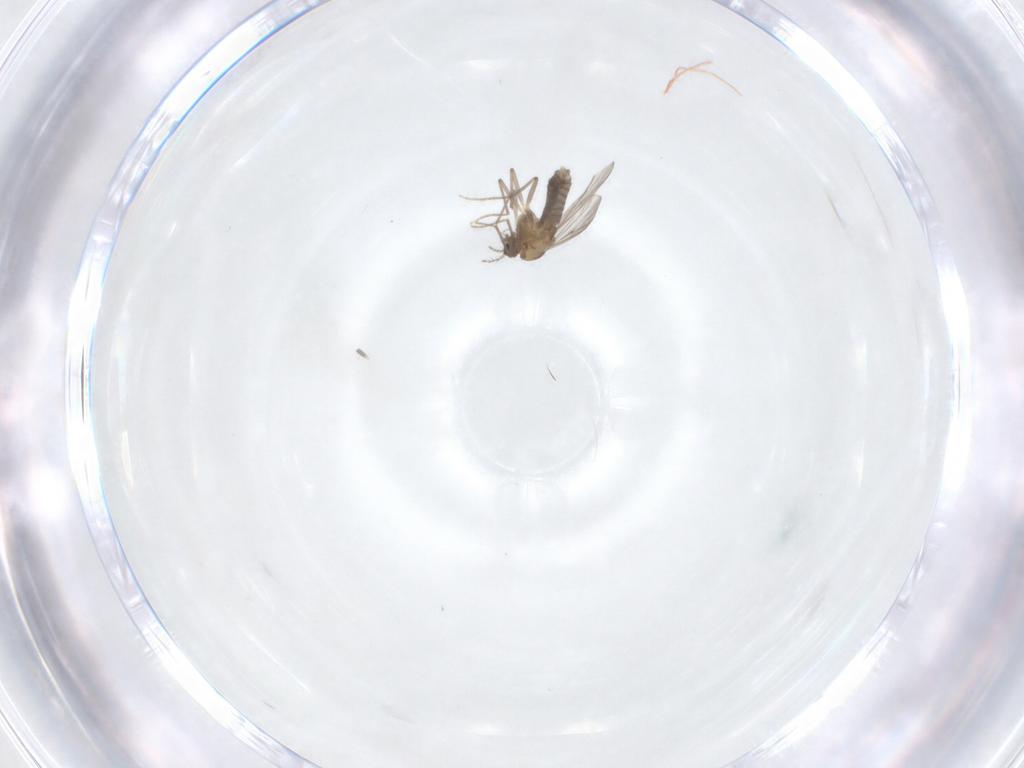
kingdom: Animalia
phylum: Arthropoda
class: Insecta
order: Diptera
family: Chironomidae
